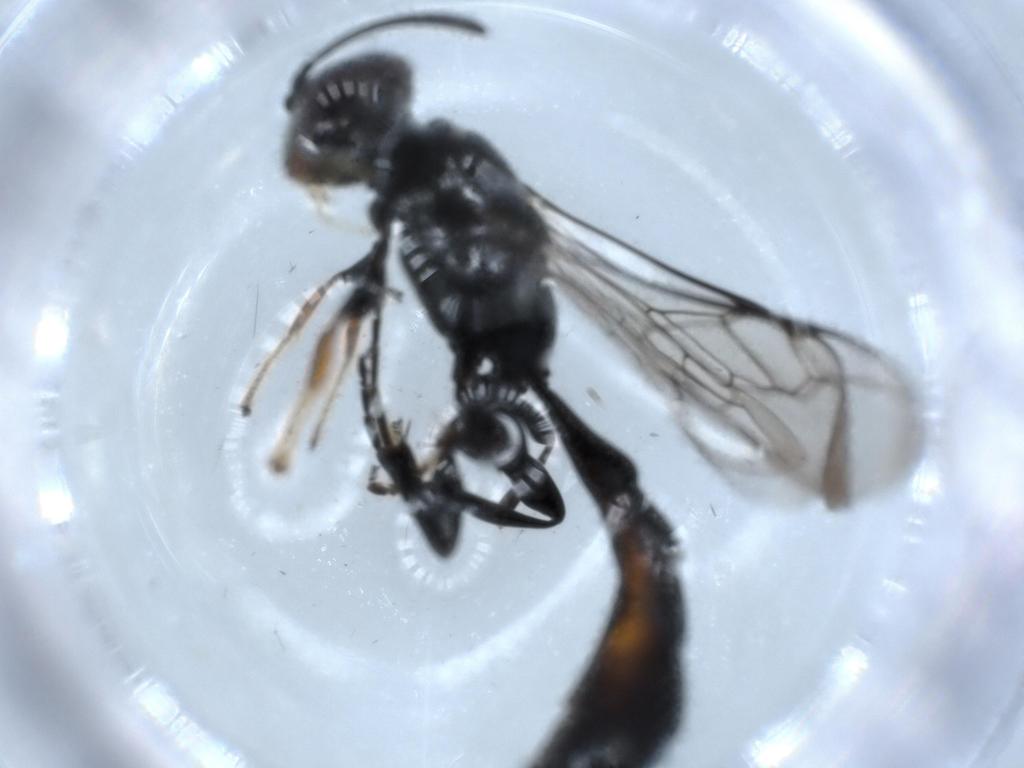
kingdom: Animalia
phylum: Arthropoda
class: Insecta
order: Hymenoptera
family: Crabronidae
